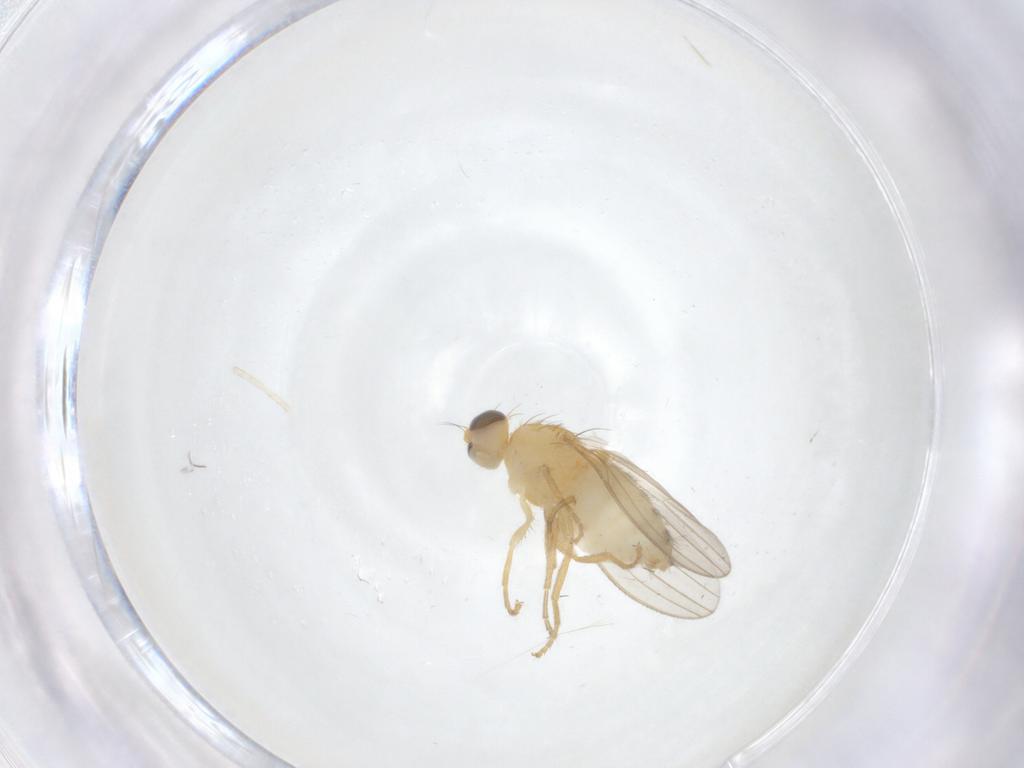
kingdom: Animalia
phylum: Arthropoda
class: Insecta
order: Diptera
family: Chyromyidae
